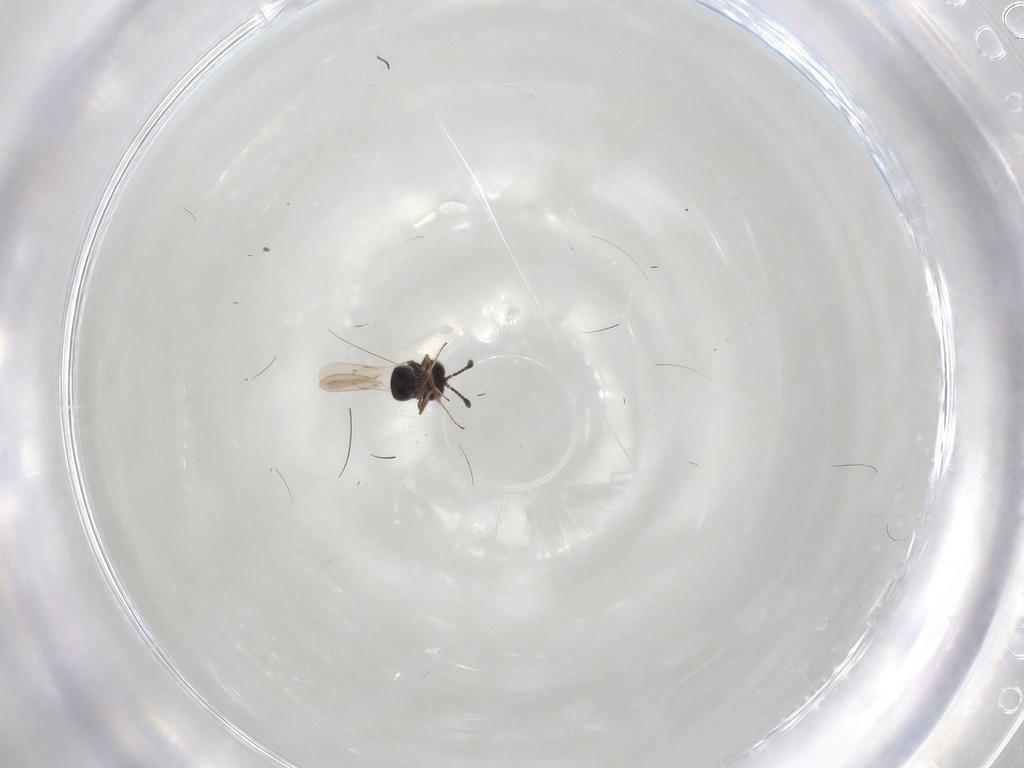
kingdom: Animalia
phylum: Arthropoda
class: Insecta
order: Hymenoptera
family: Scelionidae
